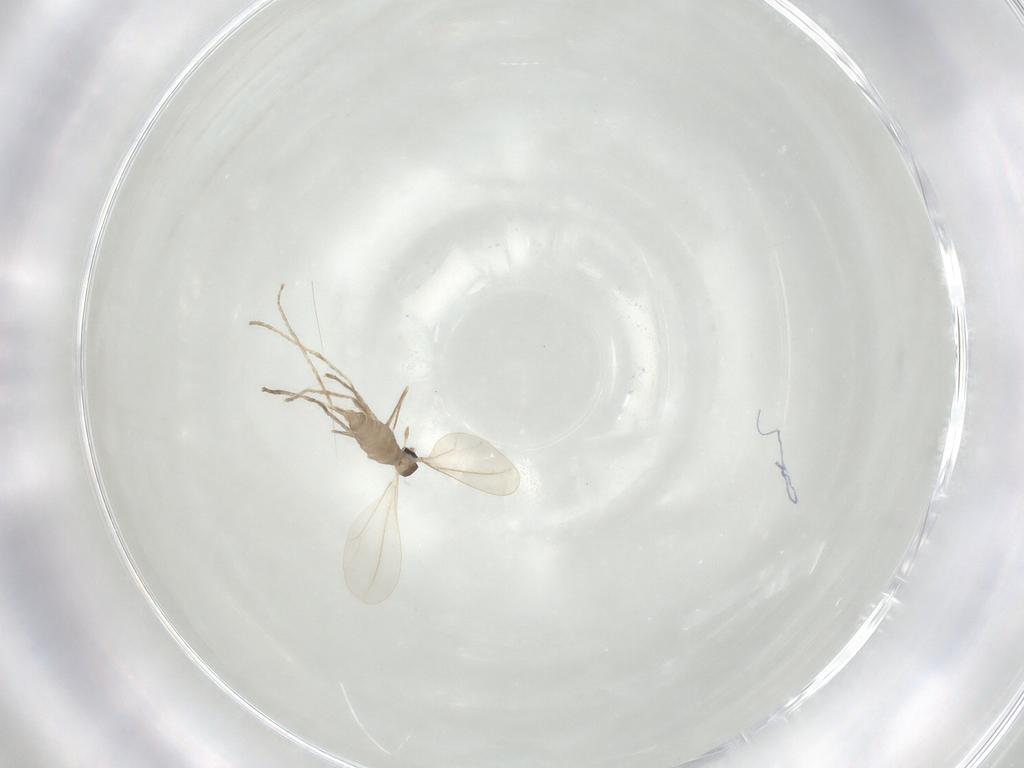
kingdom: Animalia
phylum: Arthropoda
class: Insecta
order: Diptera
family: Cecidomyiidae
